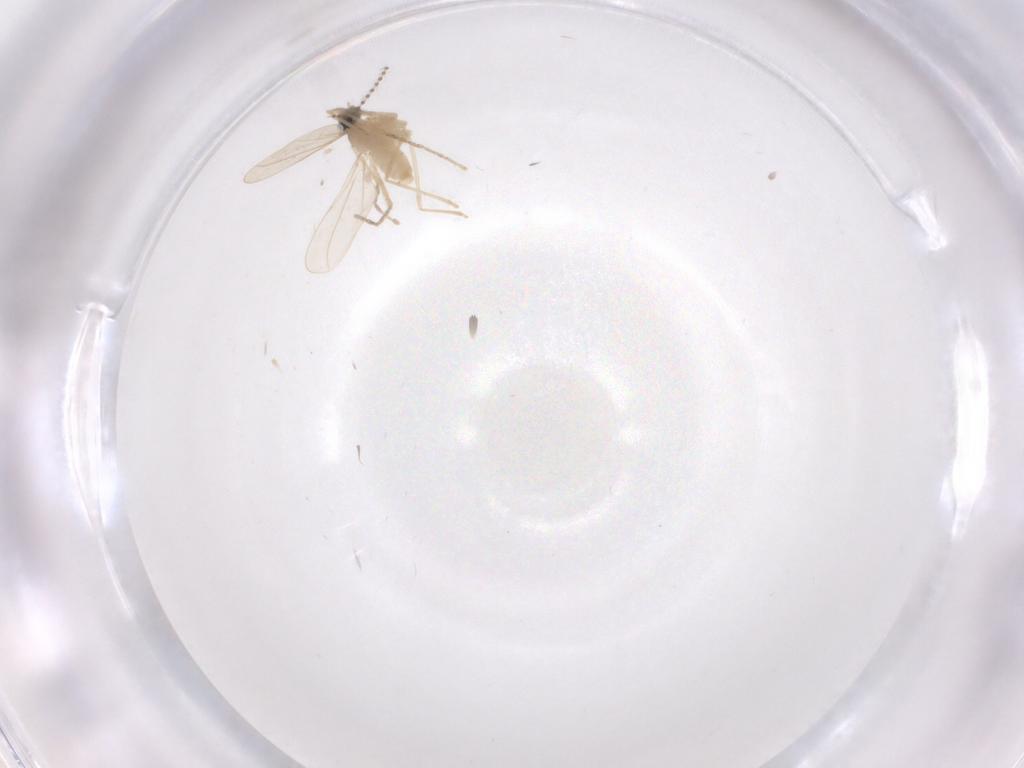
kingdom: Animalia
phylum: Arthropoda
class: Insecta
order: Diptera
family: Cecidomyiidae
